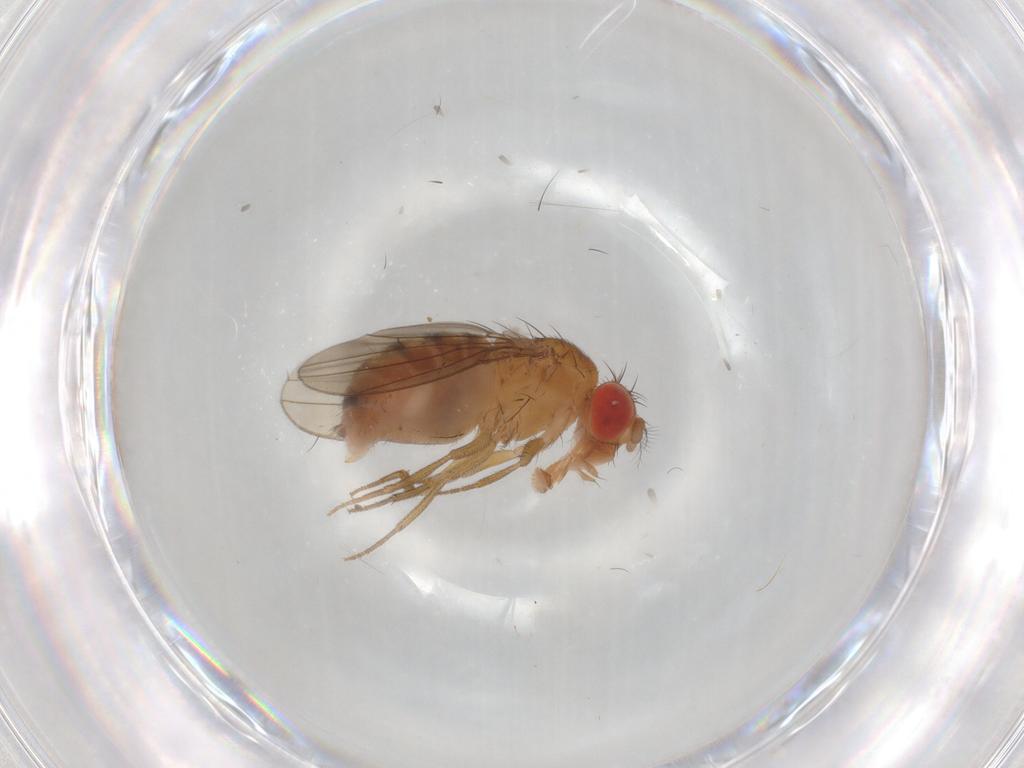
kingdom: Animalia
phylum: Arthropoda
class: Insecta
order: Diptera
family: Drosophilidae
